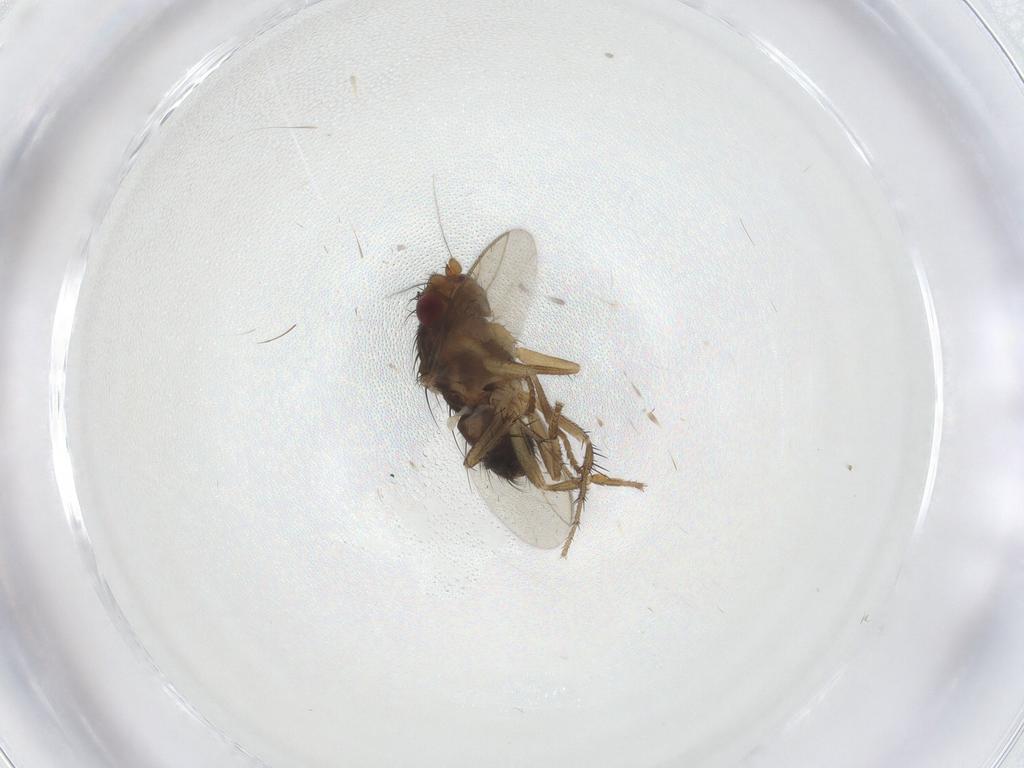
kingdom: Animalia
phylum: Arthropoda
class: Insecta
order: Diptera
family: Sphaeroceridae
